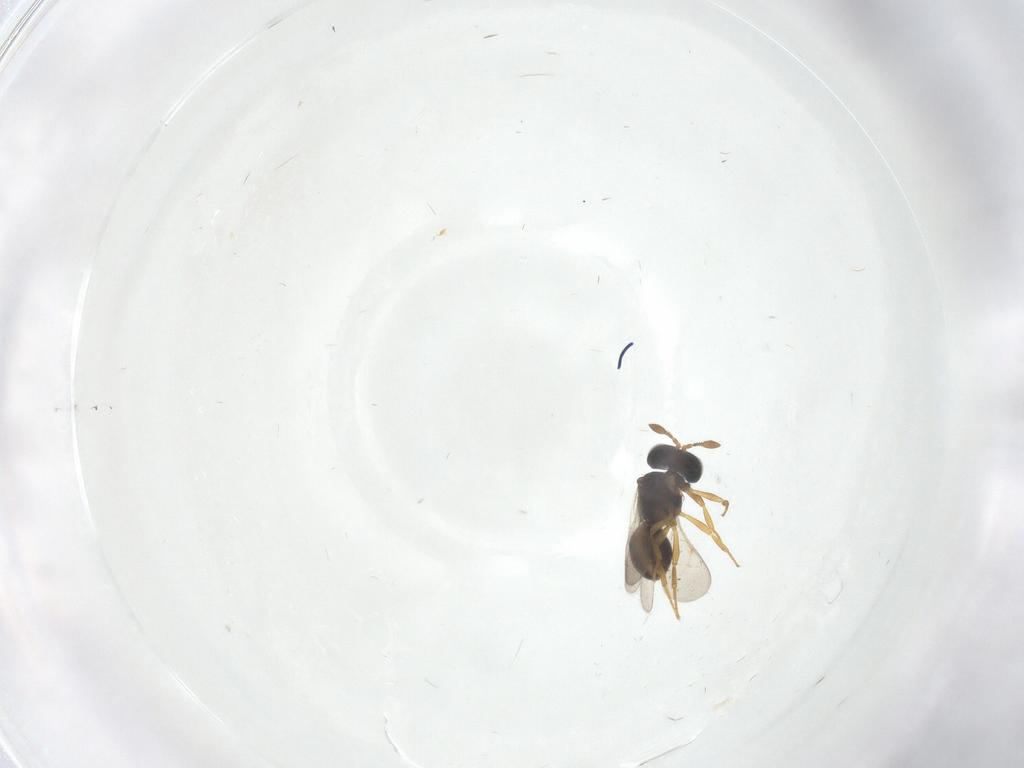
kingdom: Animalia
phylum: Arthropoda
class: Insecta
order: Hymenoptera
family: Scelionidae
